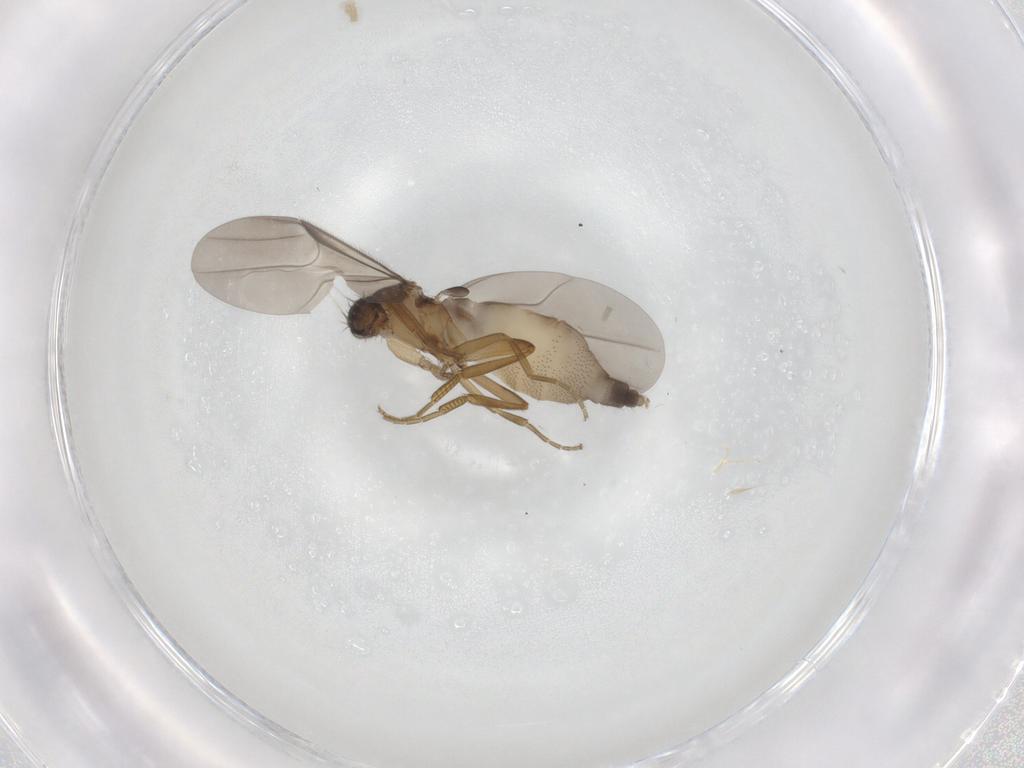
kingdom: Animalia
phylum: Arthropoda
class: Insecta
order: Diptera
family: Phoridae
